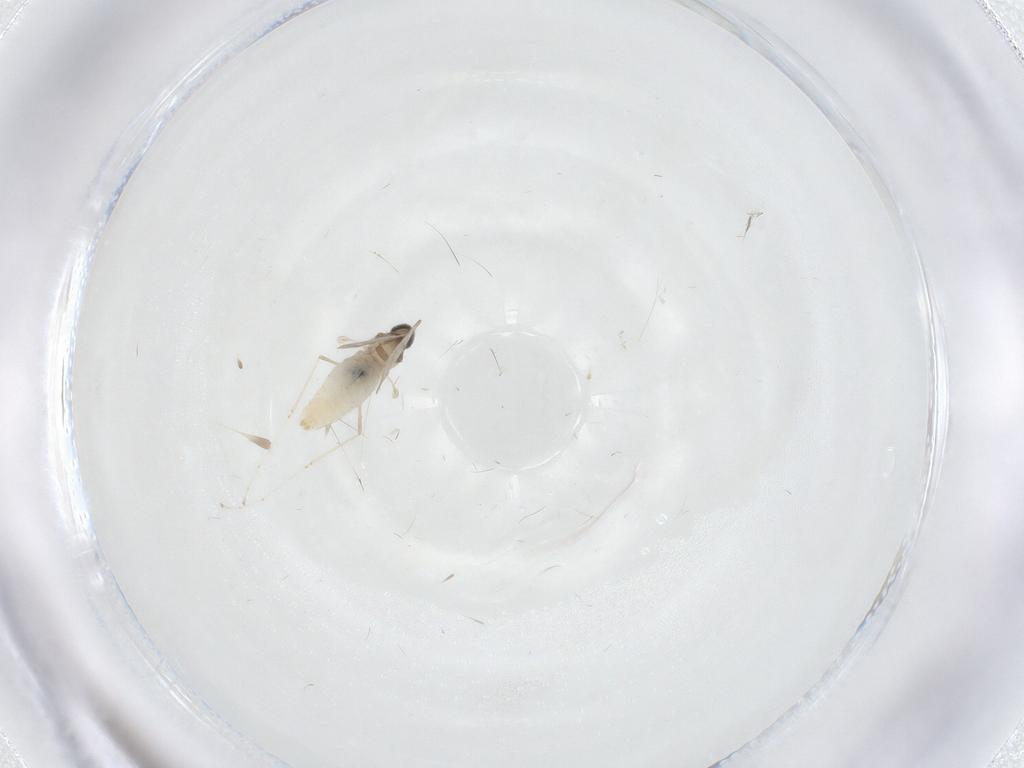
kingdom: Animalia
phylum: Arthropoda
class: Insecta
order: Diptera
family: Cecidomyiidae
